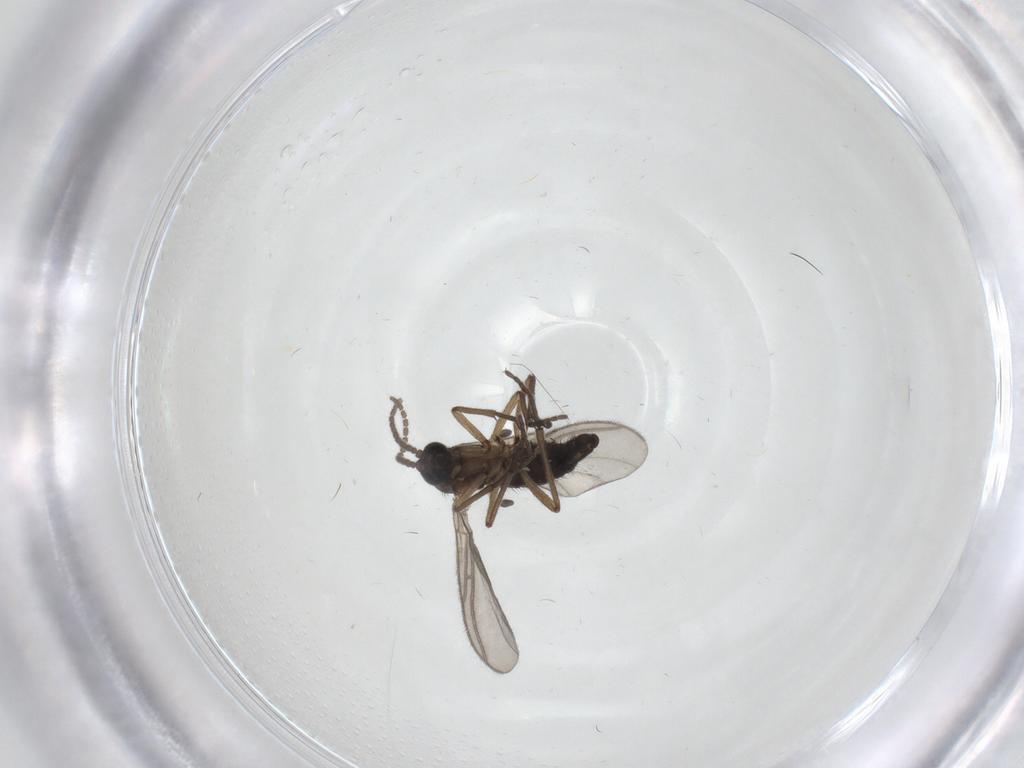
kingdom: Animalia
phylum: Arthropoda
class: Insecta
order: Diptera
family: Sciaridae
